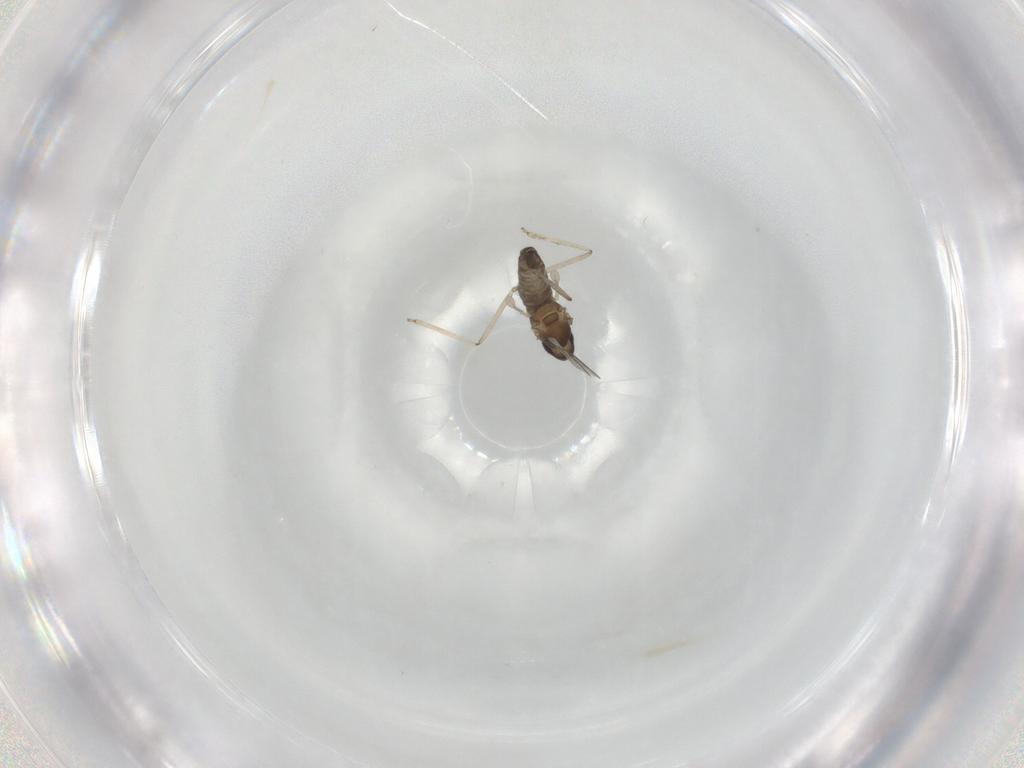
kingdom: Animalia
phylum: Arthropoda
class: Insecta
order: Diptera
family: Cecidomyiidae
